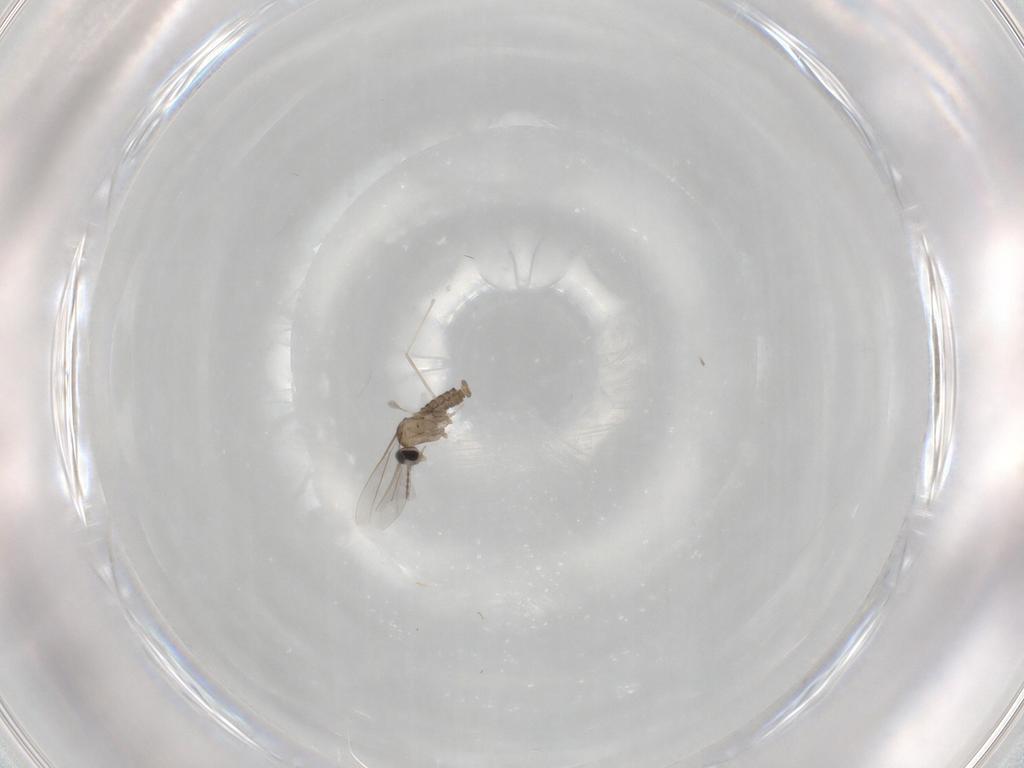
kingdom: Animalia
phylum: Arthropoda
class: Insecta
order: Diptera
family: Cecidomyiidae
